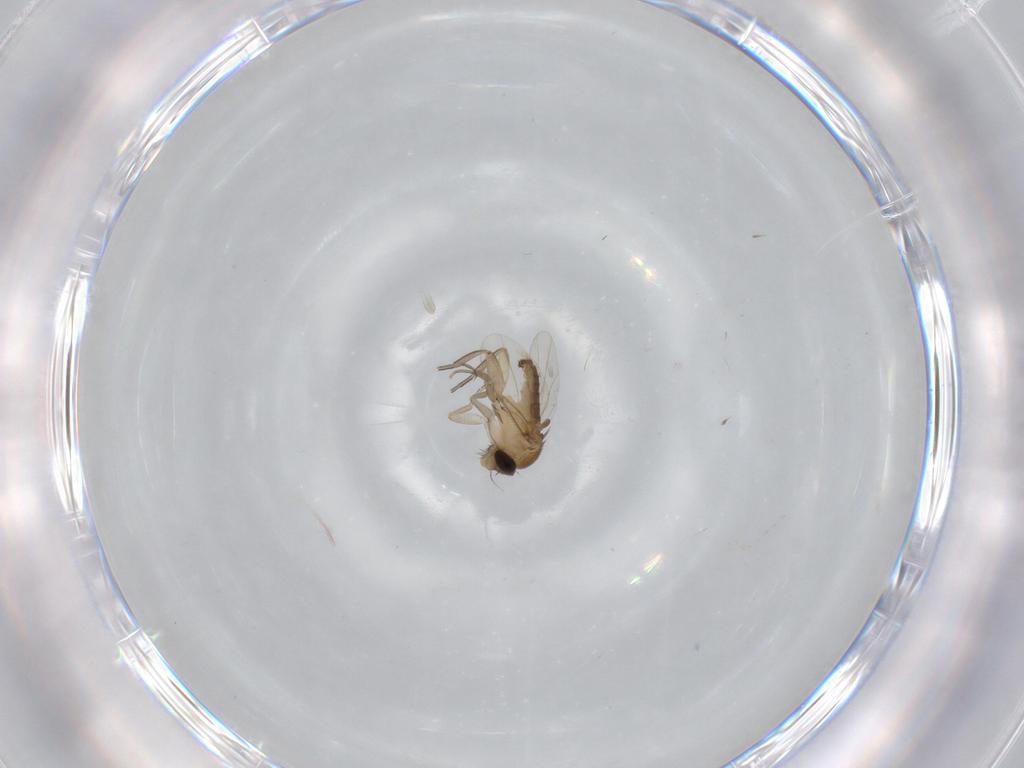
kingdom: Animalia
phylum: Arthropoda
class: Insecta
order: Diptera
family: Phoridae
